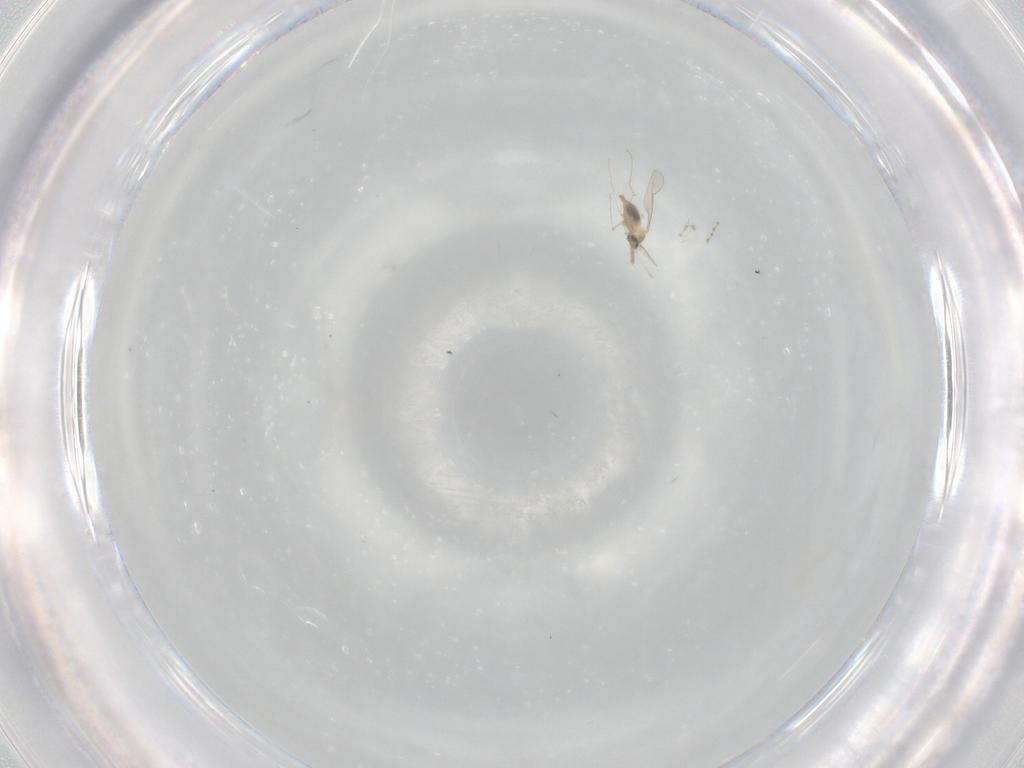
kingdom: Animalia
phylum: Arthropoda
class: Insecta
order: Diptera
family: Cecidomyiidae
